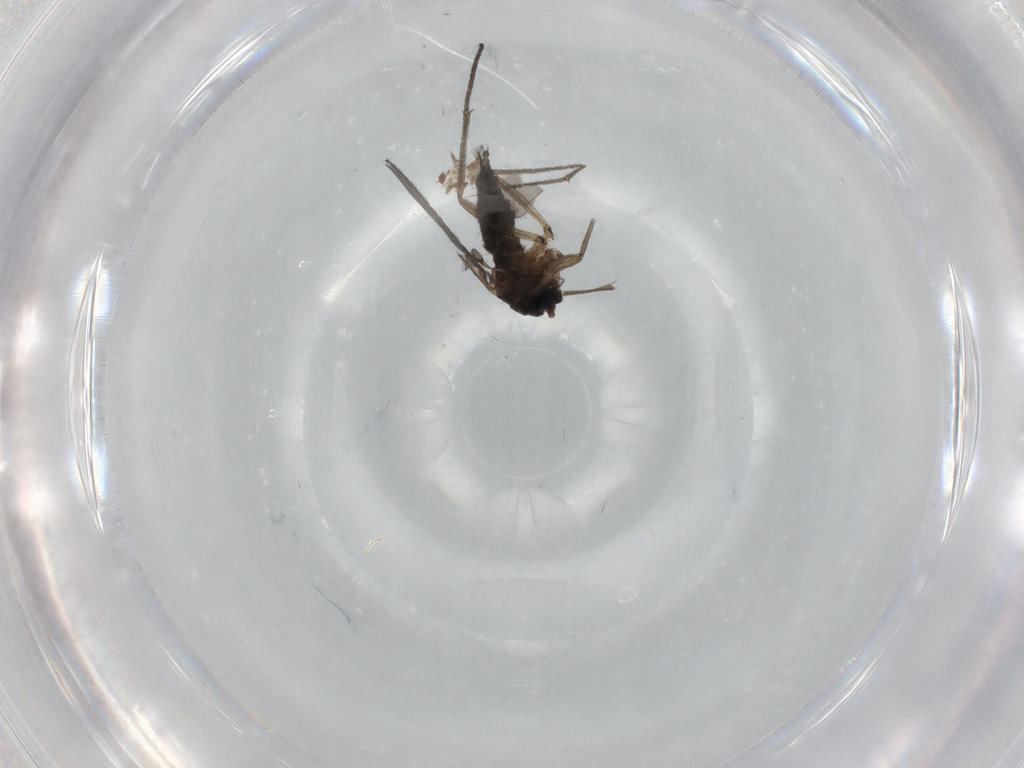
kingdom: Animalia
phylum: Arthropoda
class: Insecta
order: Diptera
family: Sciaridae
